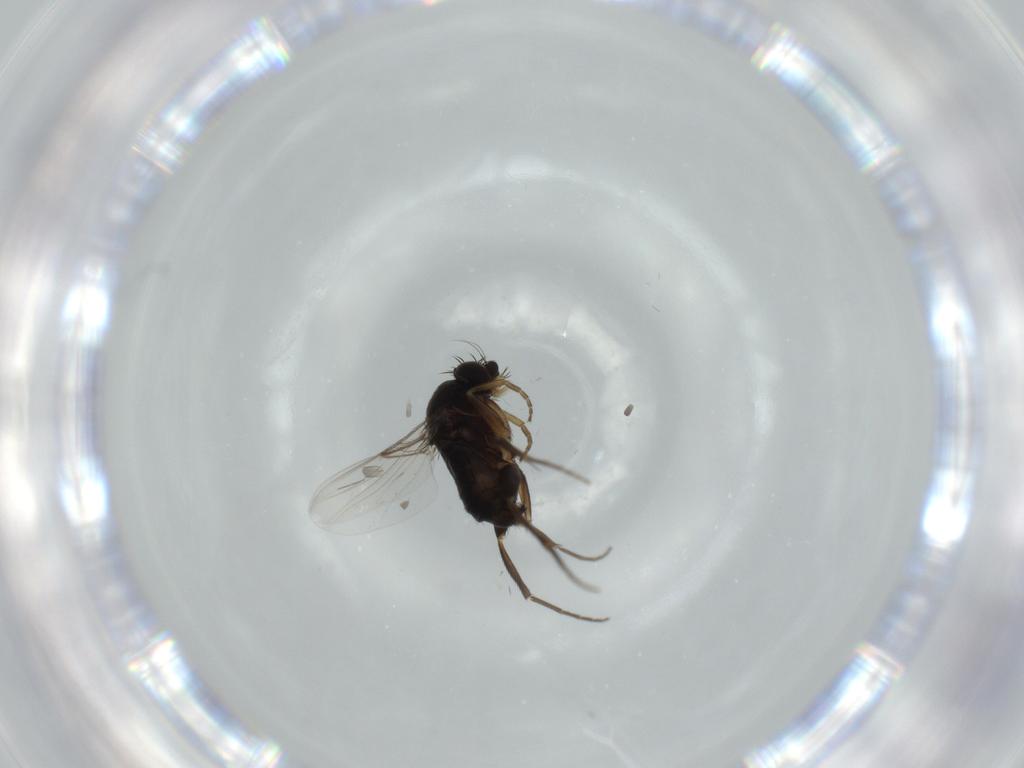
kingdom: Animalia
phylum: Arthropoda
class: Insecta
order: Diptera
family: Phoridae
